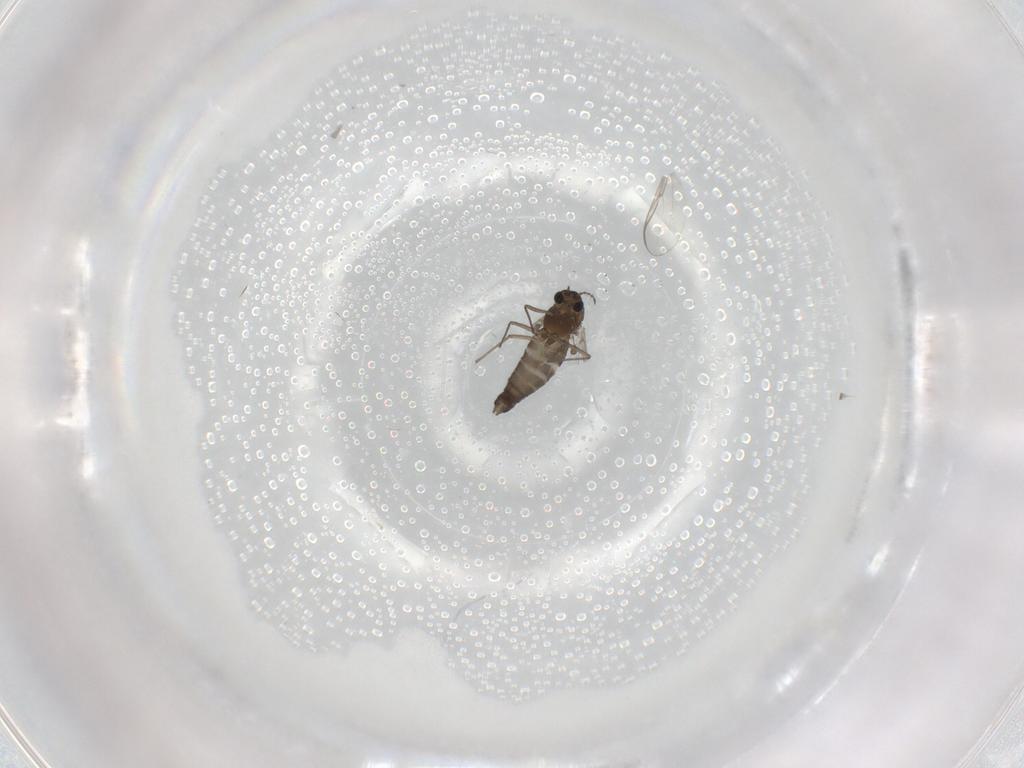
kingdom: Animalia
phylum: Arthropoda
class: Insecta
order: Diptera
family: Chironomidae
